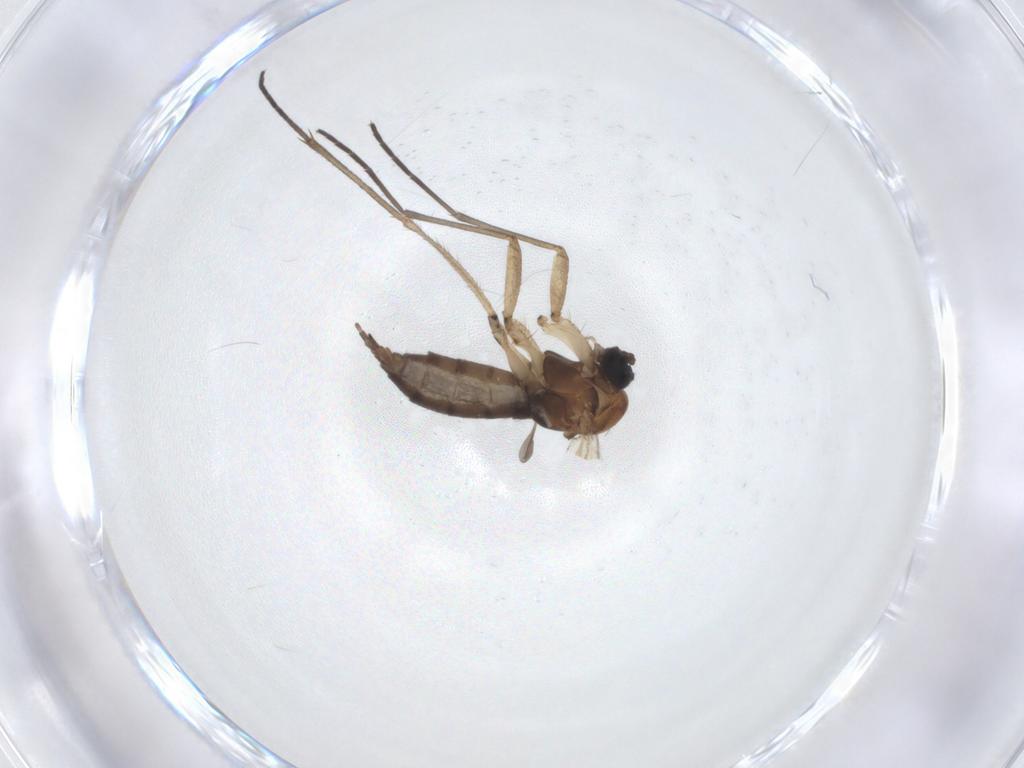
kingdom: Animalia
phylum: Arthropoda
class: Insecta
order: Diptera
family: Sciaridae
